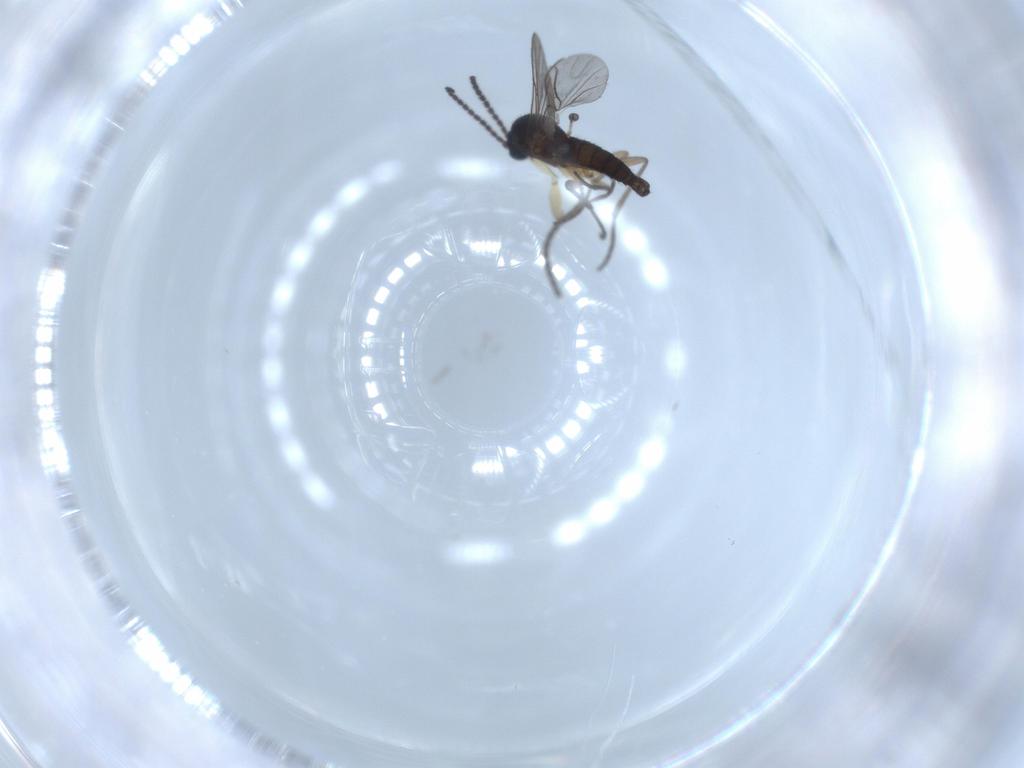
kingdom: Animalia
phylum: Arthropoda
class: Insecta
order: Diptera
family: Sciaridae
